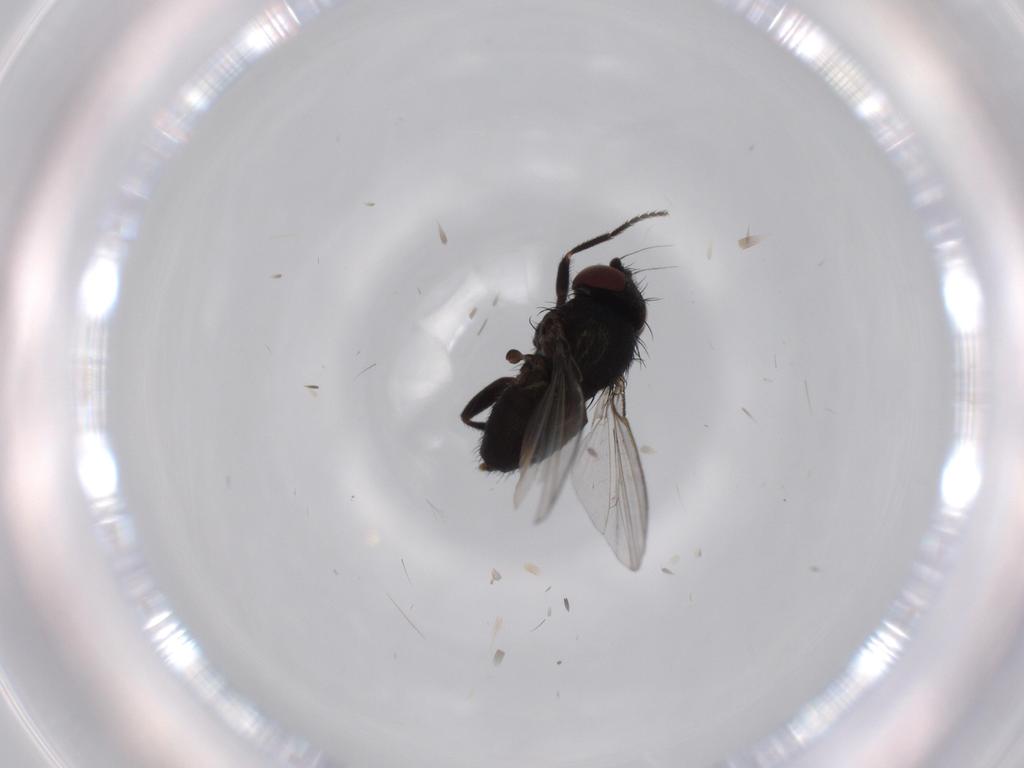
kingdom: Animalia
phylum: Arthropoda
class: Insecta
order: Diptera
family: Milichiidae
